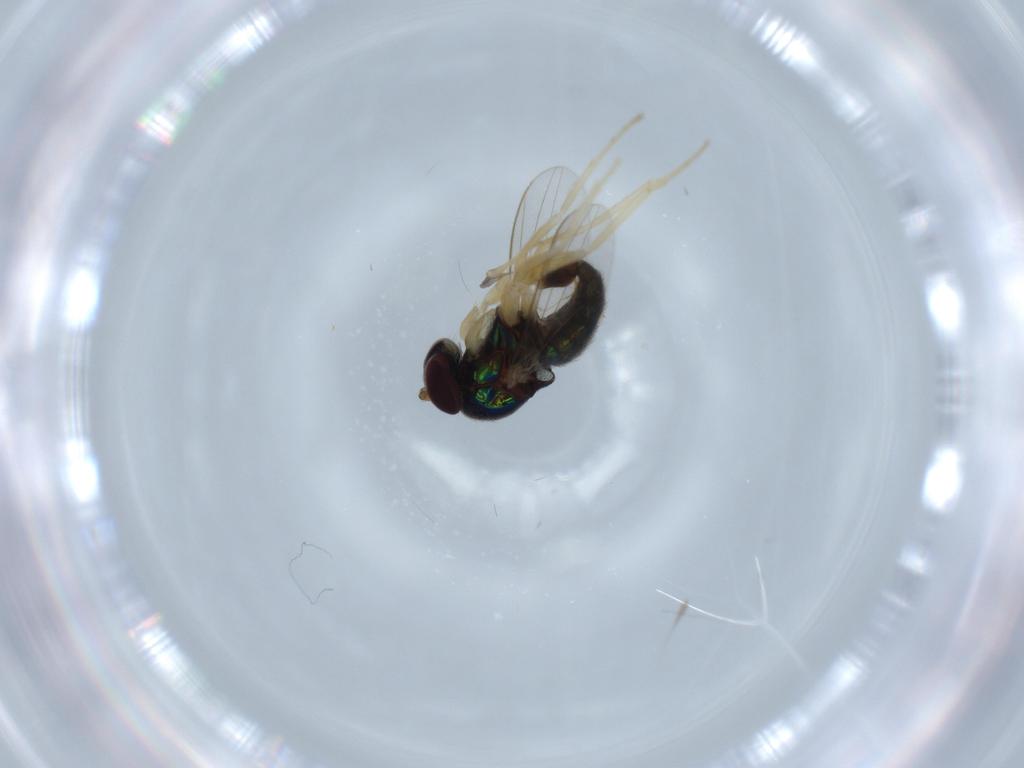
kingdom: Animalia
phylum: Arthropoda
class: Insecta
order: Diptera
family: Dolichopodidae
